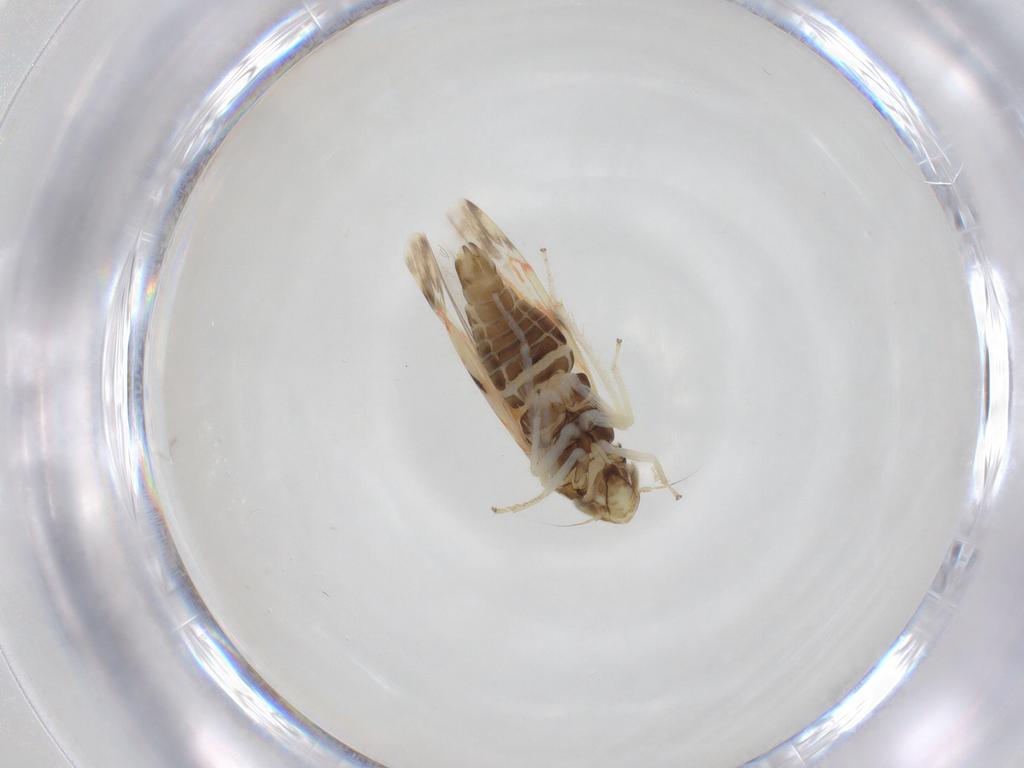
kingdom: Animalia
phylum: Arthropoda
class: Insecta
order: Hemiptera
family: Cicadellidae
